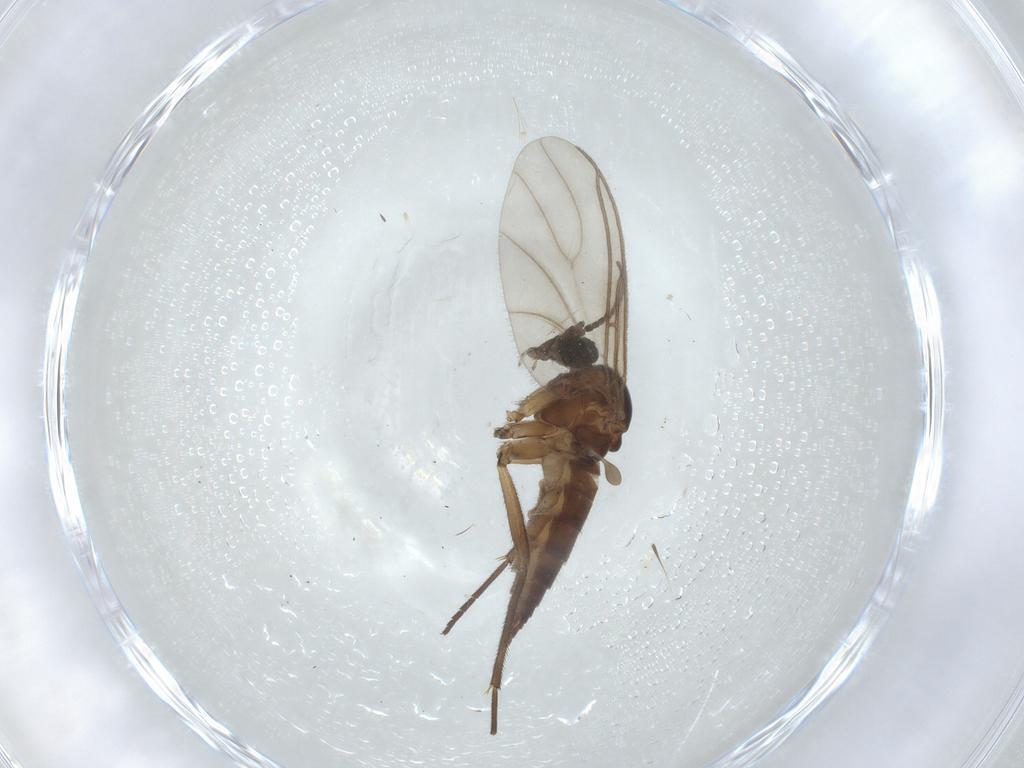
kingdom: Animalia
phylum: Arthropoda
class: Insecta
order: Diptera
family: Sciaridae
